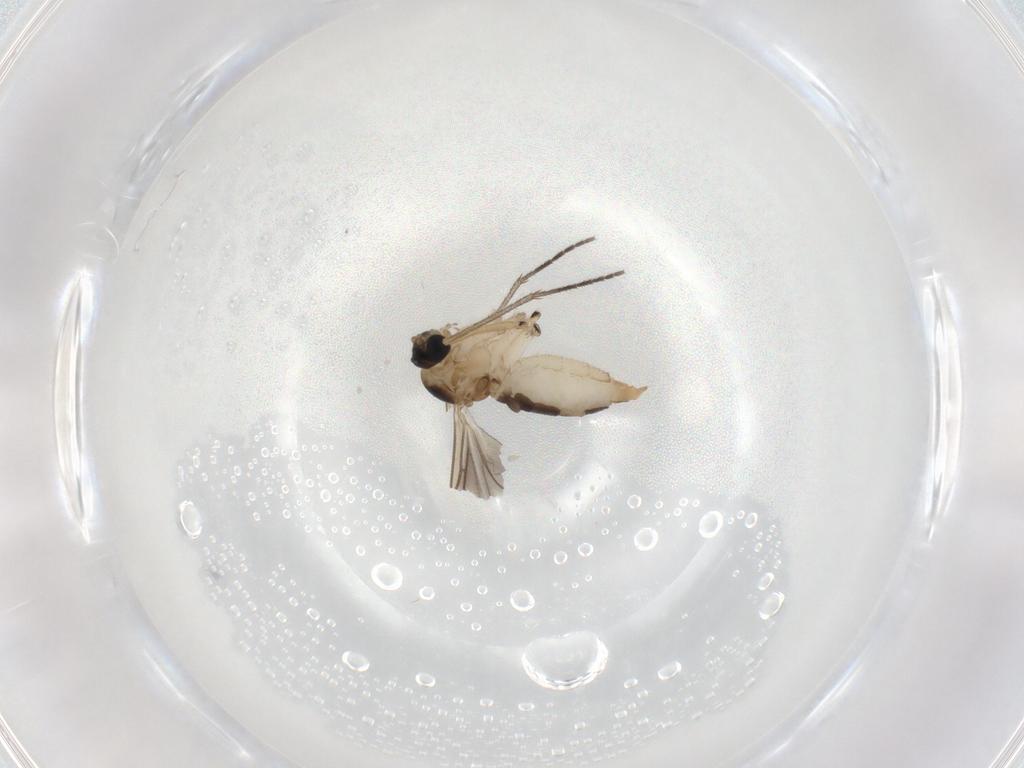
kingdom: Animalia
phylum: Arthropoda
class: Insecta
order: Diptera
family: Sciaridae
